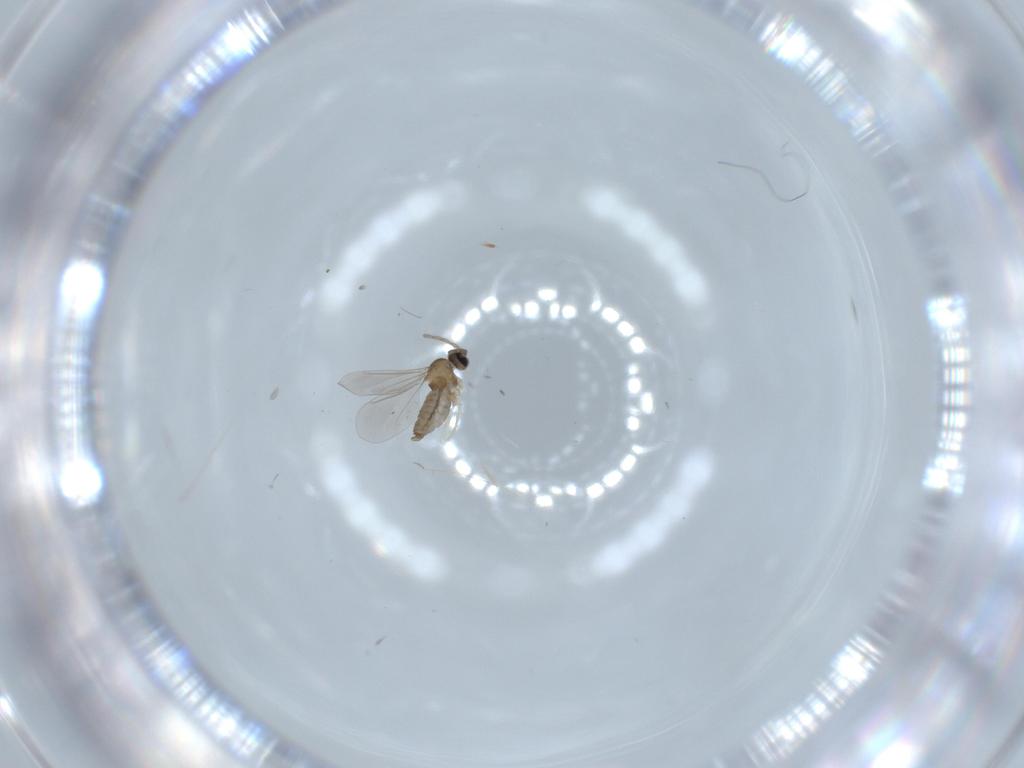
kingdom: Animalia
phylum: Arthropoda
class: Insecta
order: Diptera
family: Cecidomyiidae
